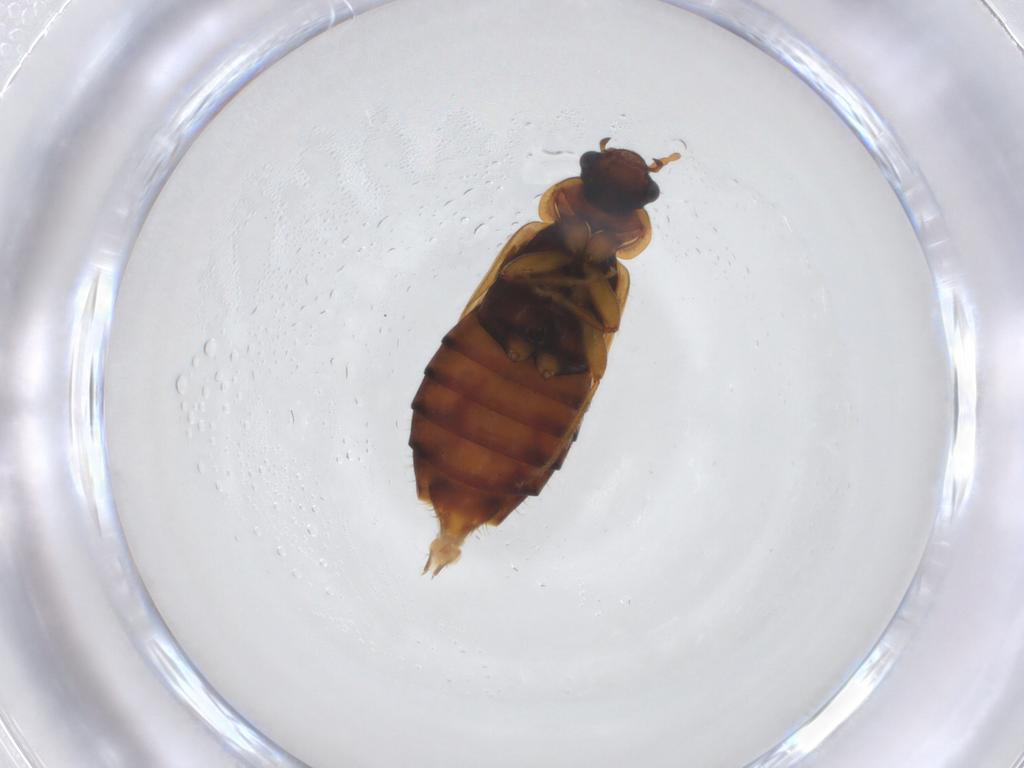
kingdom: Animalia
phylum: Arthropoda
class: Insecta
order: Coleoptera
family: Staphylinidae
